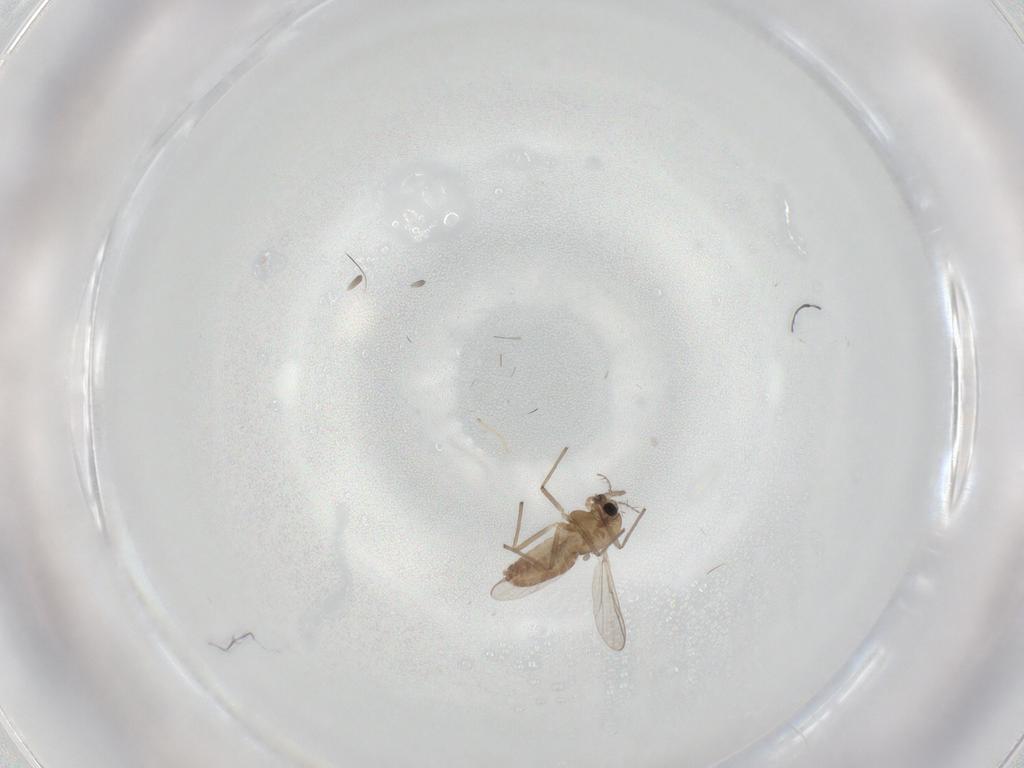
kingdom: Animalia
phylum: Arthropoda
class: Insecta
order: Diptera
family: Chironomidae
